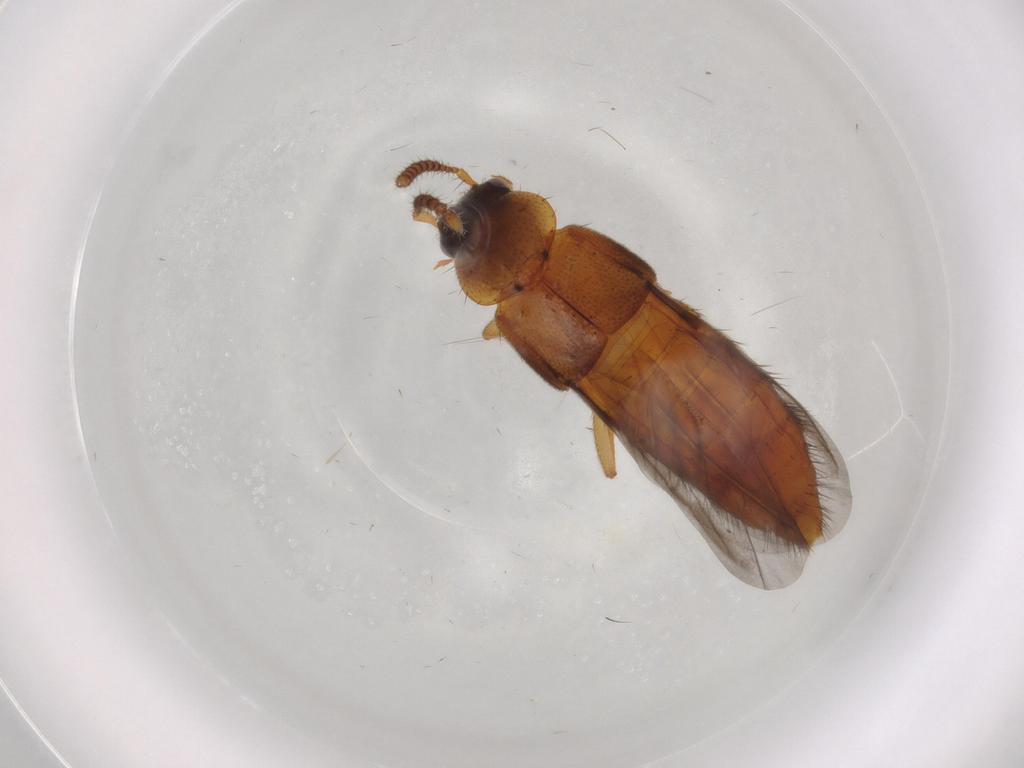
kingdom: Animalia
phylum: Arthropoda
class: Insecta
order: Coleoptera
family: Staphylinidae
